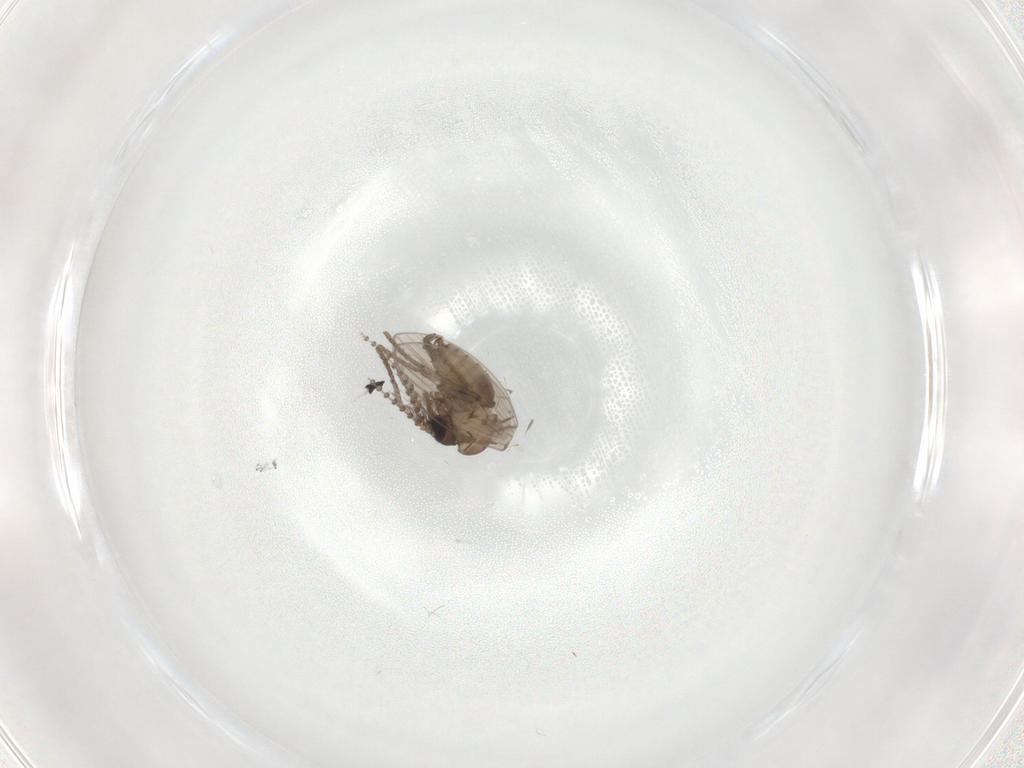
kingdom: Animalia
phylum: Arthropoda
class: Insecta
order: Diptera
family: Psychodidae
